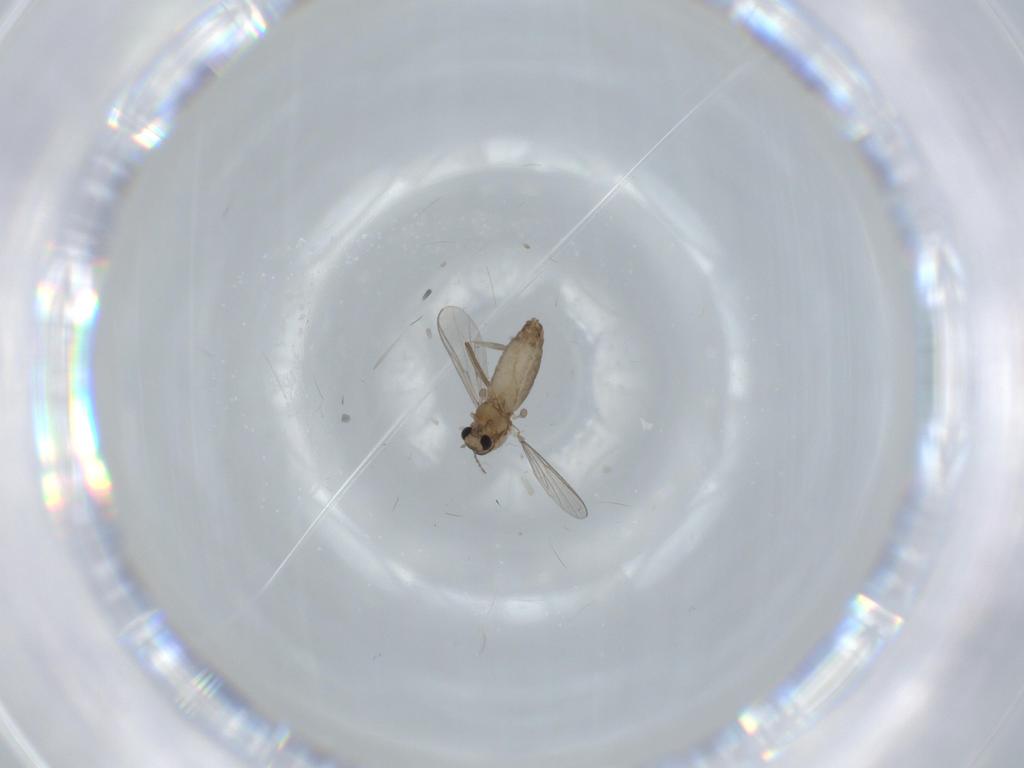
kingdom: Animalia
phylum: Arthropoda
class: Insecta
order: Diptera
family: Chironomidae
